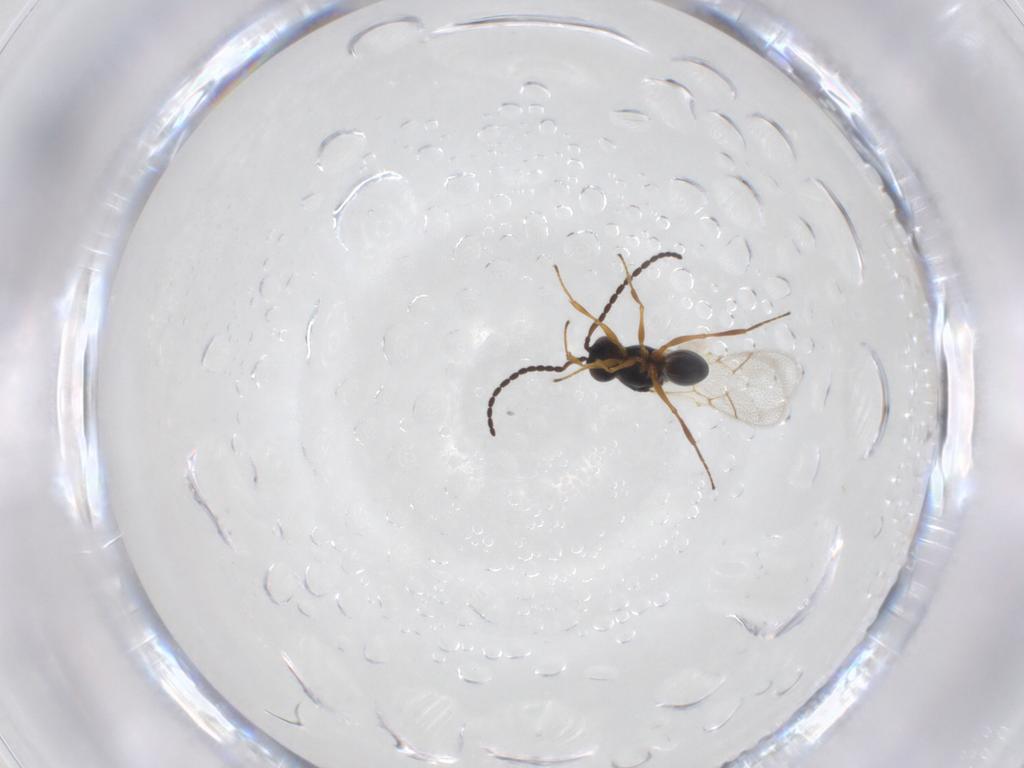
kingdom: Animalia
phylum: Arthropoda
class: Insecta
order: Hymenoptera
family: Figitidae
